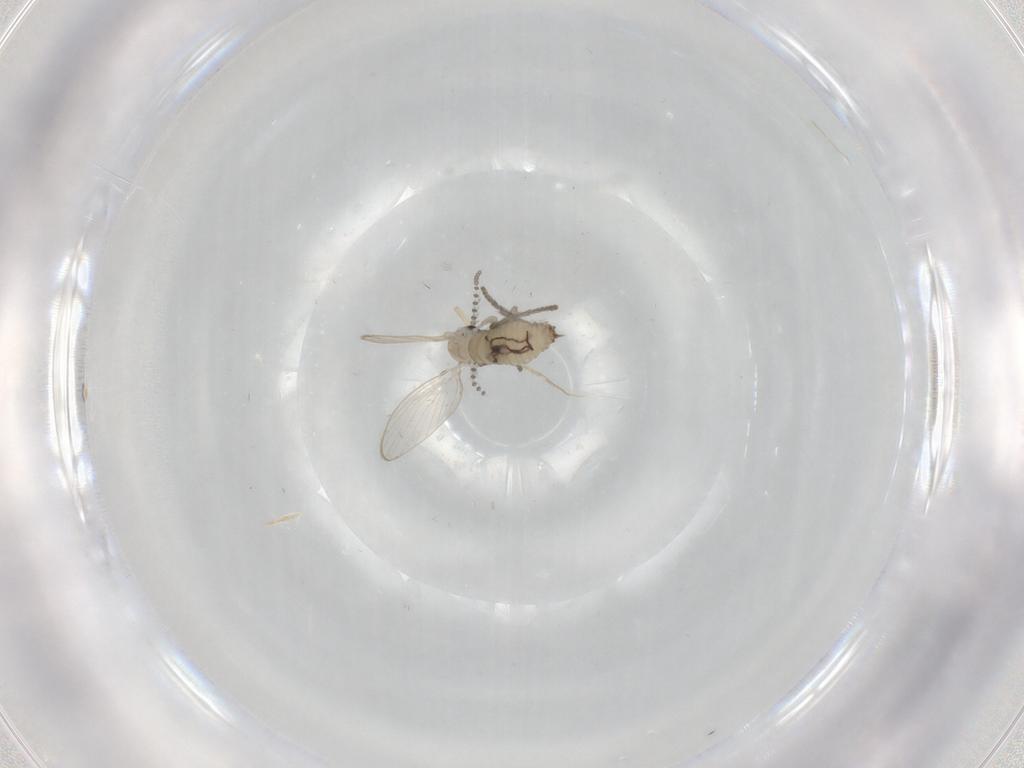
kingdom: Animalia
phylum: Arthropoda
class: Insecta
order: Diptera
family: Psychodidae
